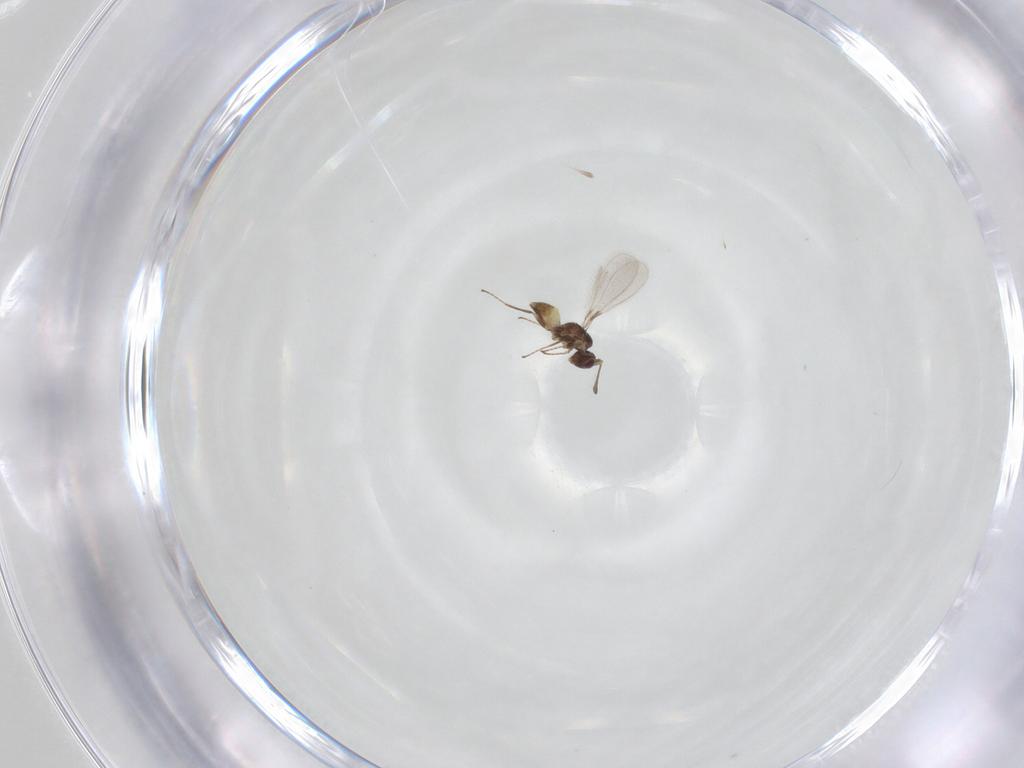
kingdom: Animalia
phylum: Arthropoda
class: Insecta
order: Hymenoptera
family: Mymaridae
